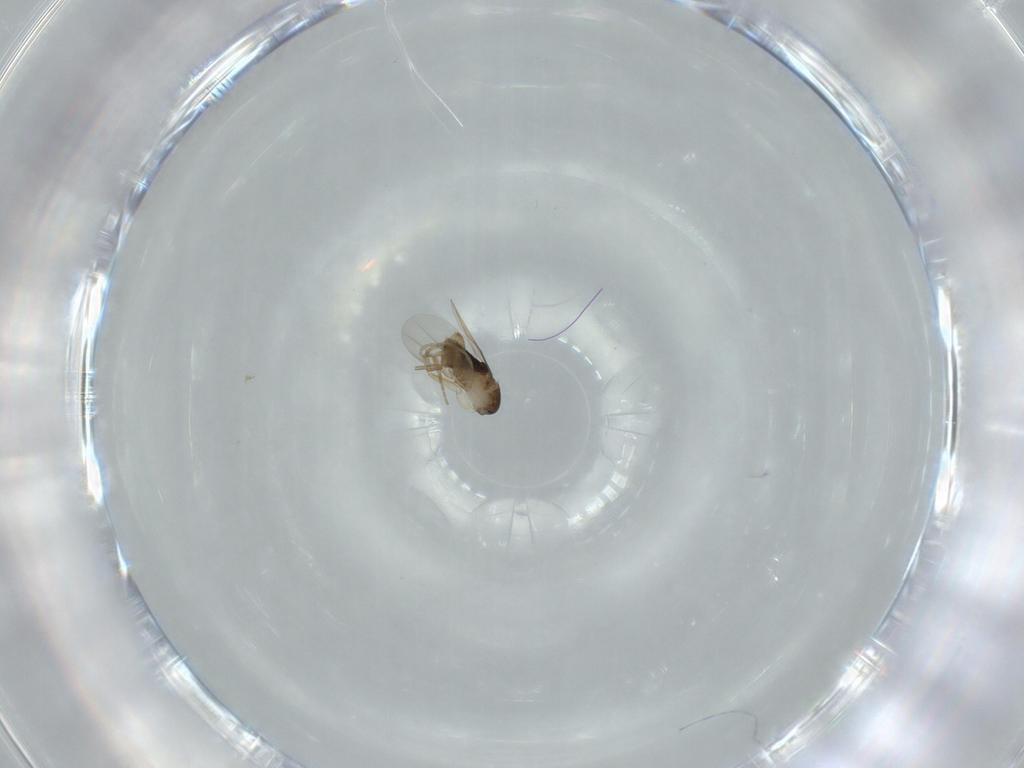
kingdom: Animalia
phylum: Arthropoda
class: Insecta
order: Diptera
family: Phoridae
